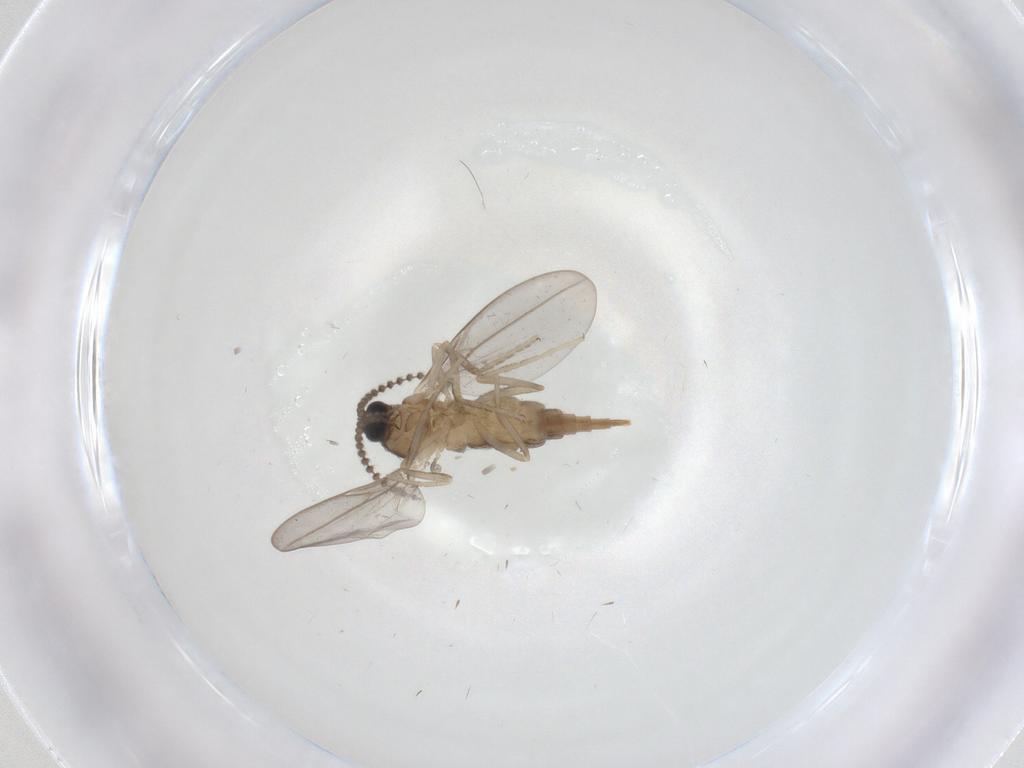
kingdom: Animalia
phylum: Arthropoda
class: Insecta
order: Diptera
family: Cecidomyiidae
